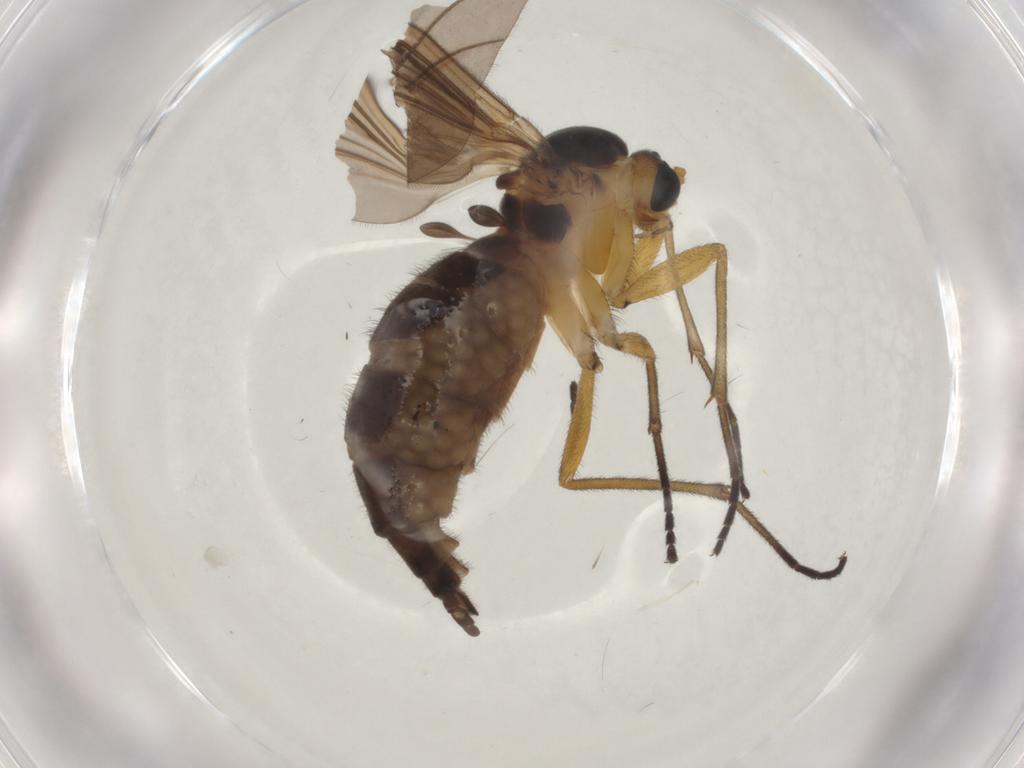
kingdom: Animalia
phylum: Arthropoda
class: Insecta
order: Diptera
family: Sciaridae
